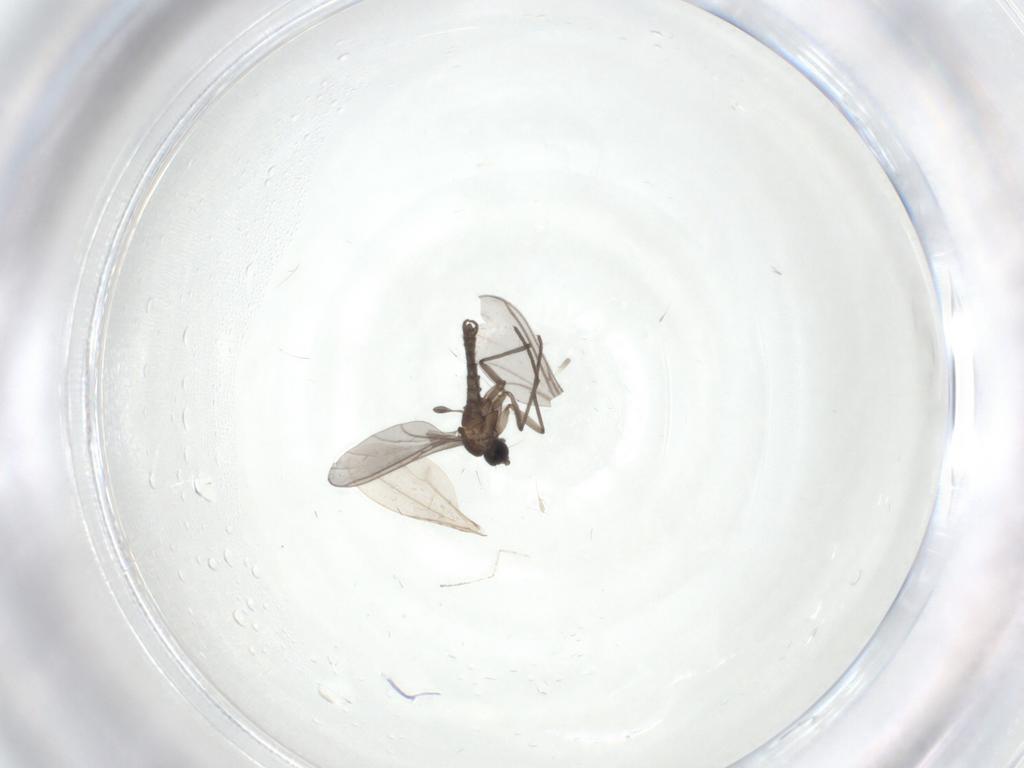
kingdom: Animalia
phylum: Arthropoda
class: Insecta
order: Diptera
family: Cecidomyiidae
